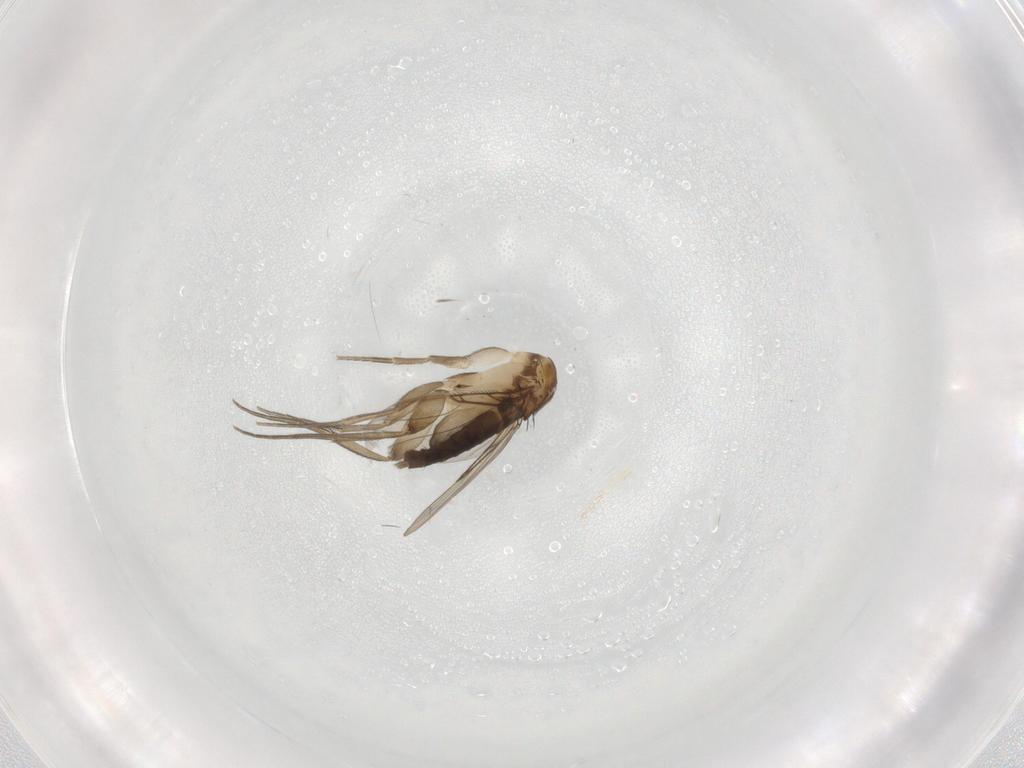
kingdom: Animalia
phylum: Arthropoda
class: Insecta
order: Diptera
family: Phoridae
